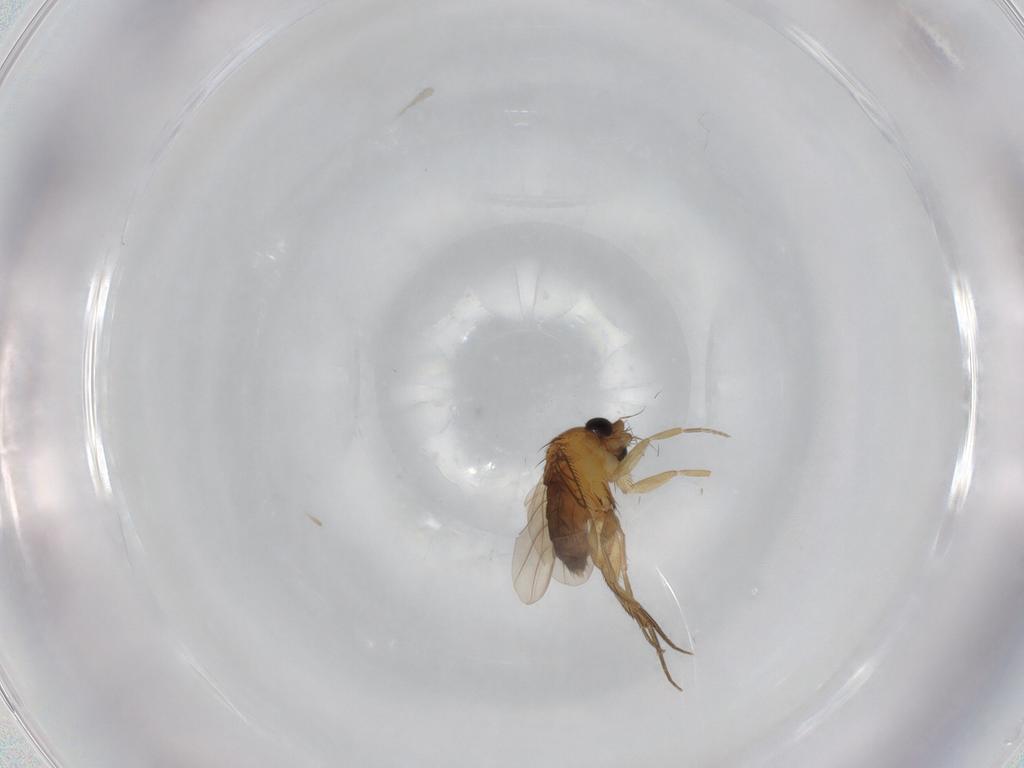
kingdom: Animalia
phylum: Arthropoda
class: Insecta
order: Diptera
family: Phoridae
